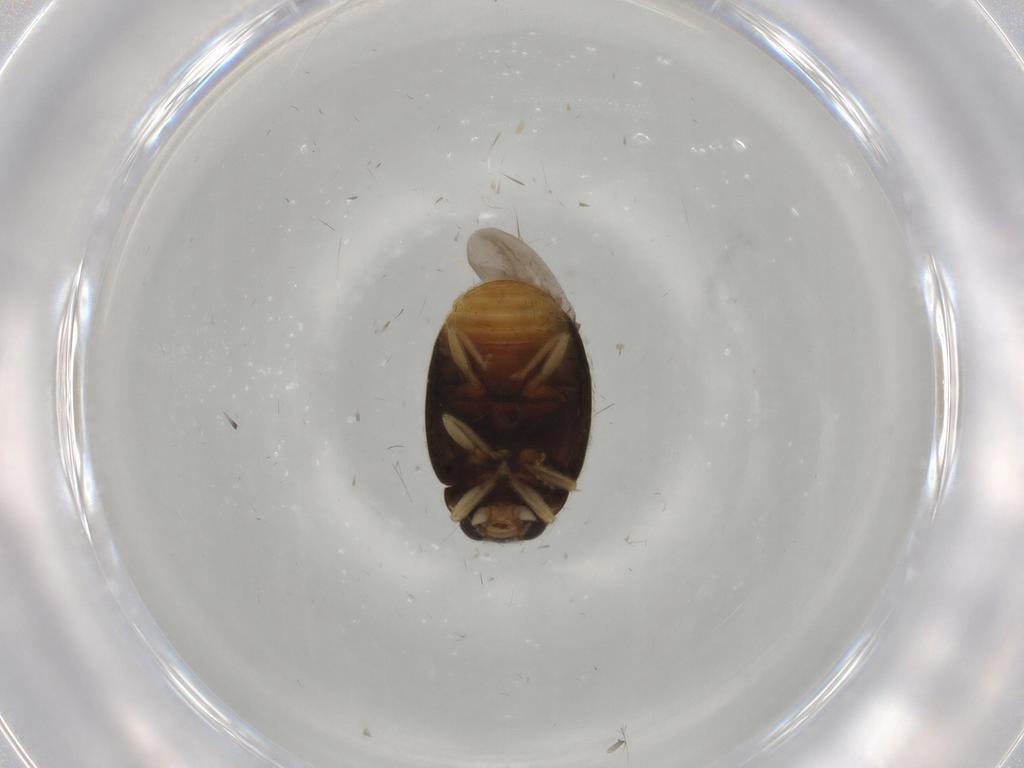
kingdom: Animalia
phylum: Arthropoda
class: Insecta
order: Coleoptera
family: Coccinellidae
